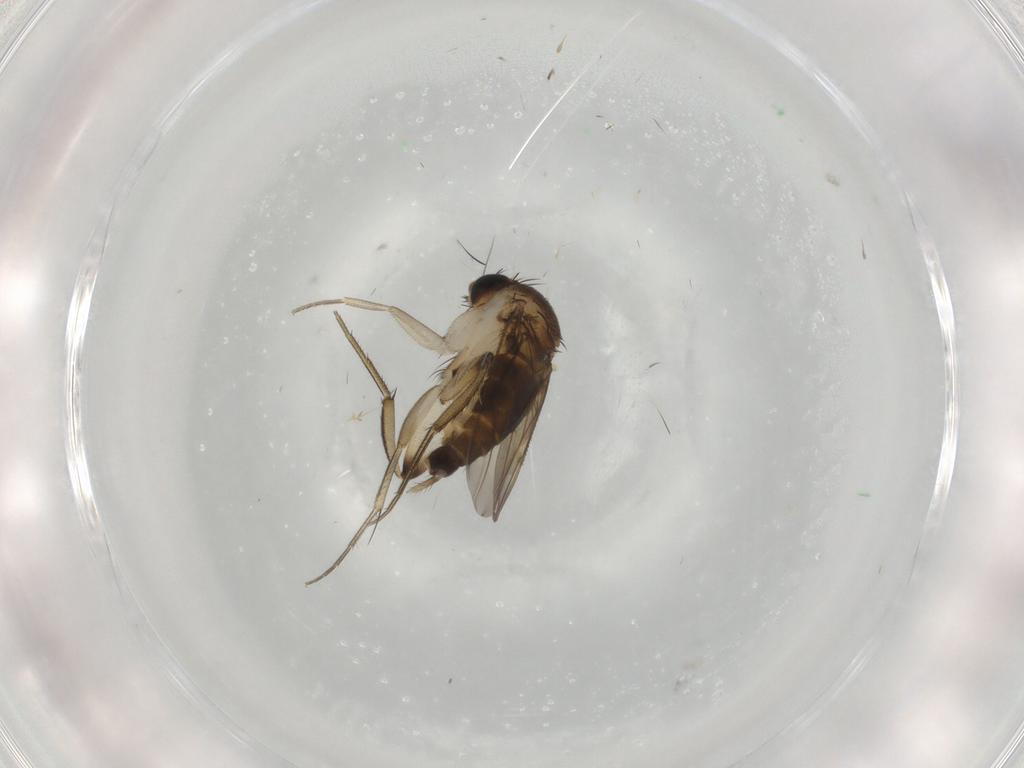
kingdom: Animalia
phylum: Arthropoda
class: Insecta
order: Diptera
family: Phoridae
